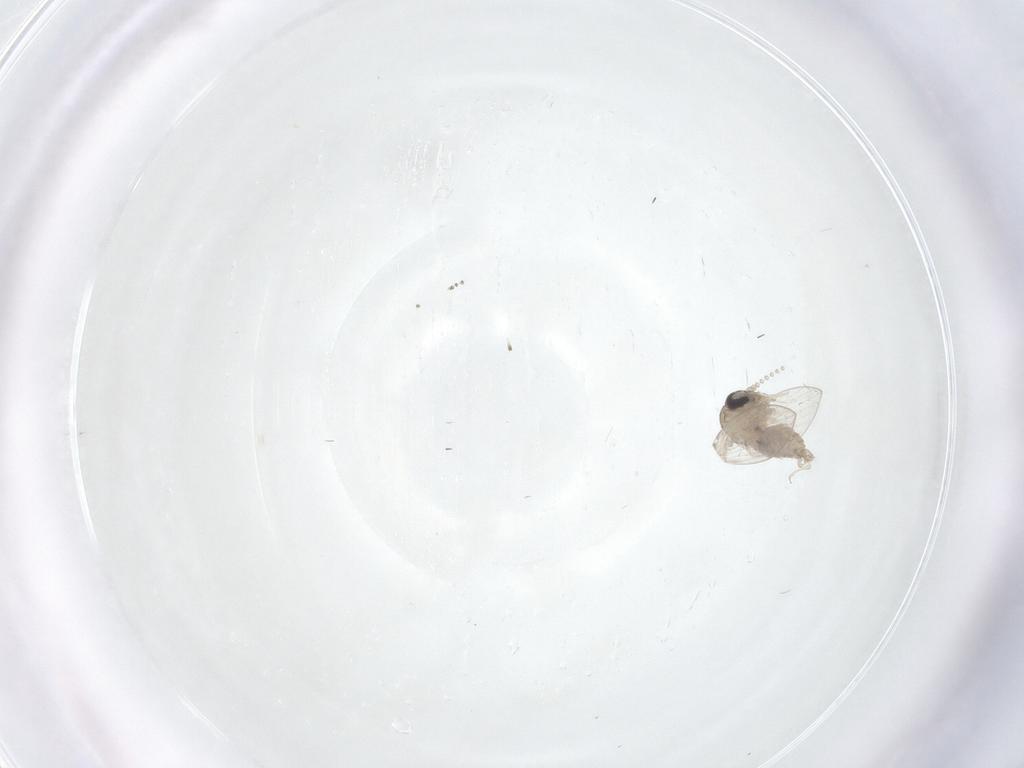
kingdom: Animalia
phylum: Arthropoda
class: Insecta
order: Diptera
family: Psychodidae
